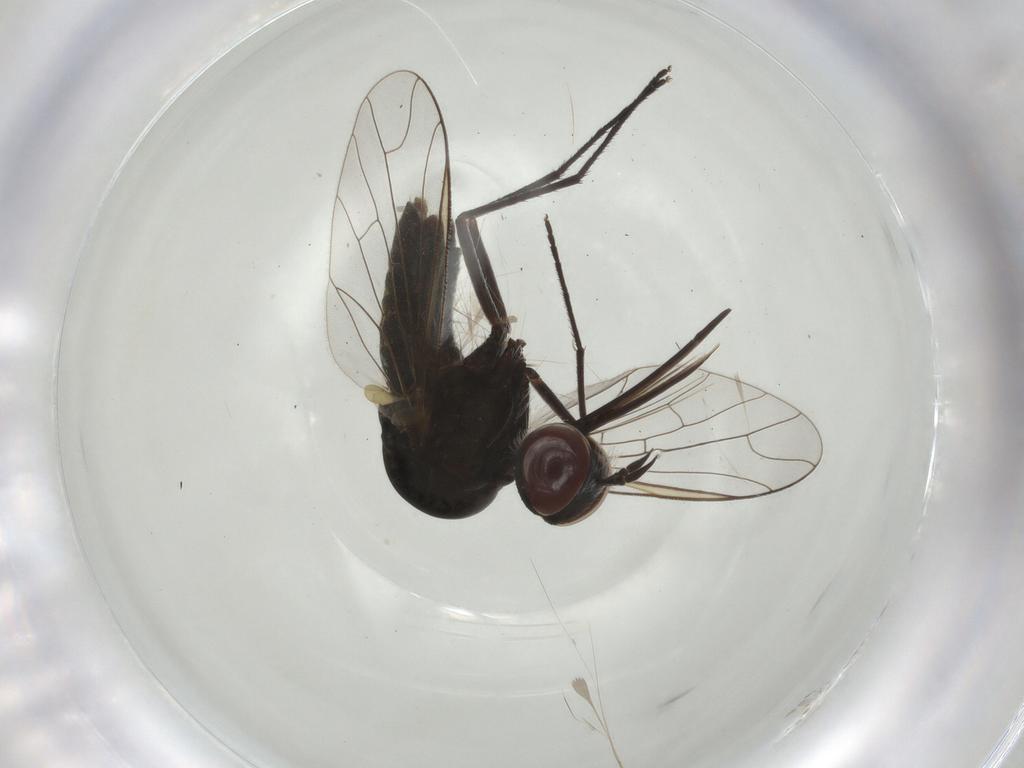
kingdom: Animalia
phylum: Arthropoda
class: Insecta
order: Diptera
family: Bombyliidae
